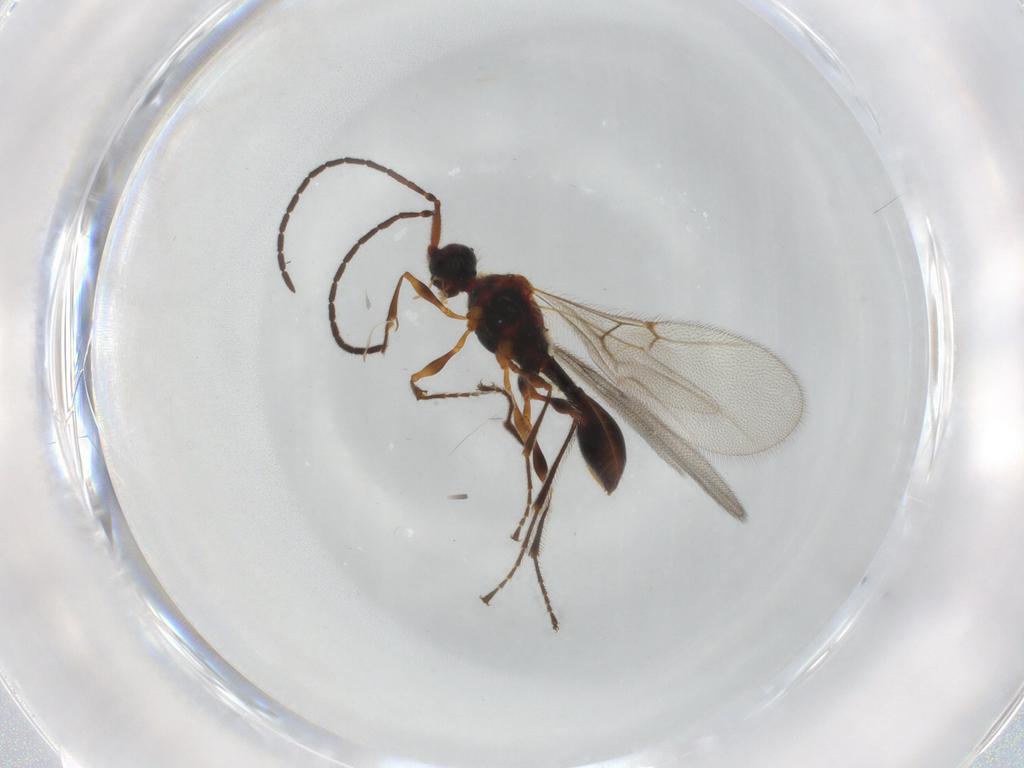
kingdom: Animalia
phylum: Arthropoda
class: Insecta
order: Hymenoptera
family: Diapriidae
